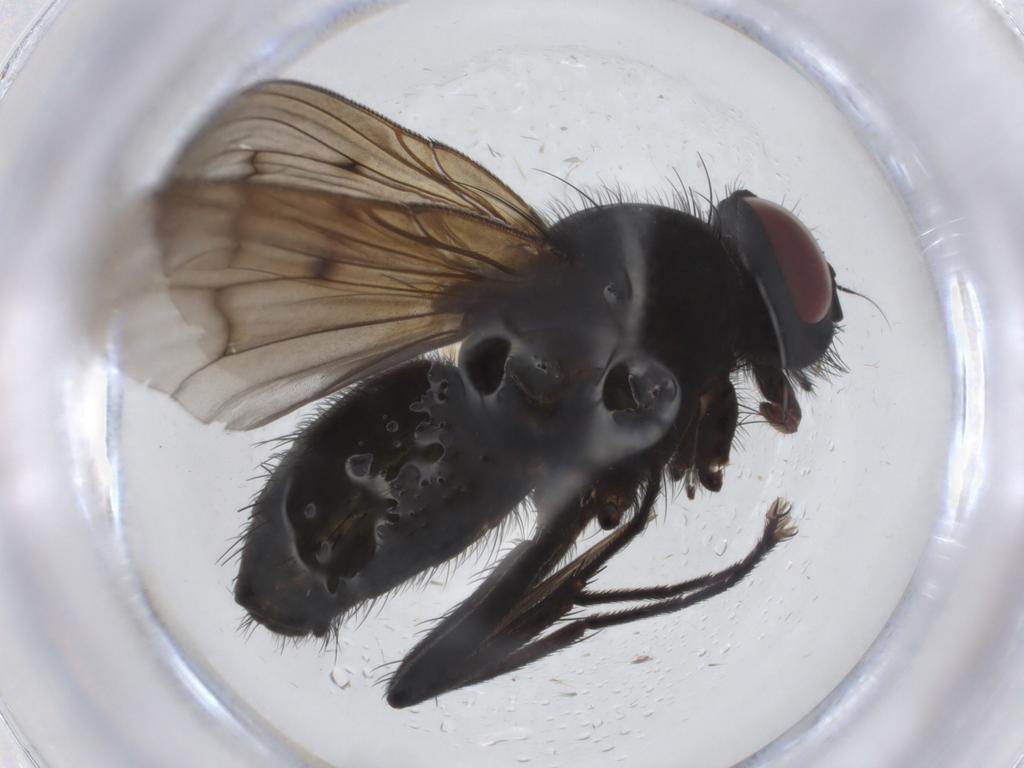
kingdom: Animalia
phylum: Arthropoda
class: Insecta
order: Diptera
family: Muscidae
